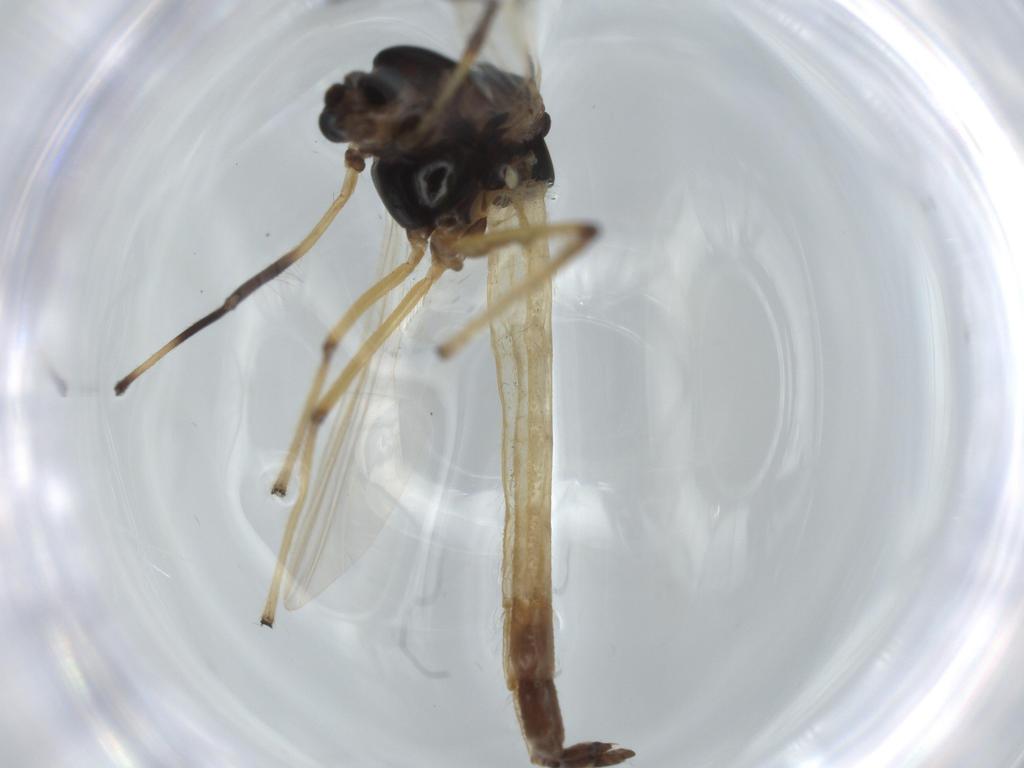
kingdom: Animalia
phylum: Arthropoda
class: Insecta
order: Diptera
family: Chironomidae
